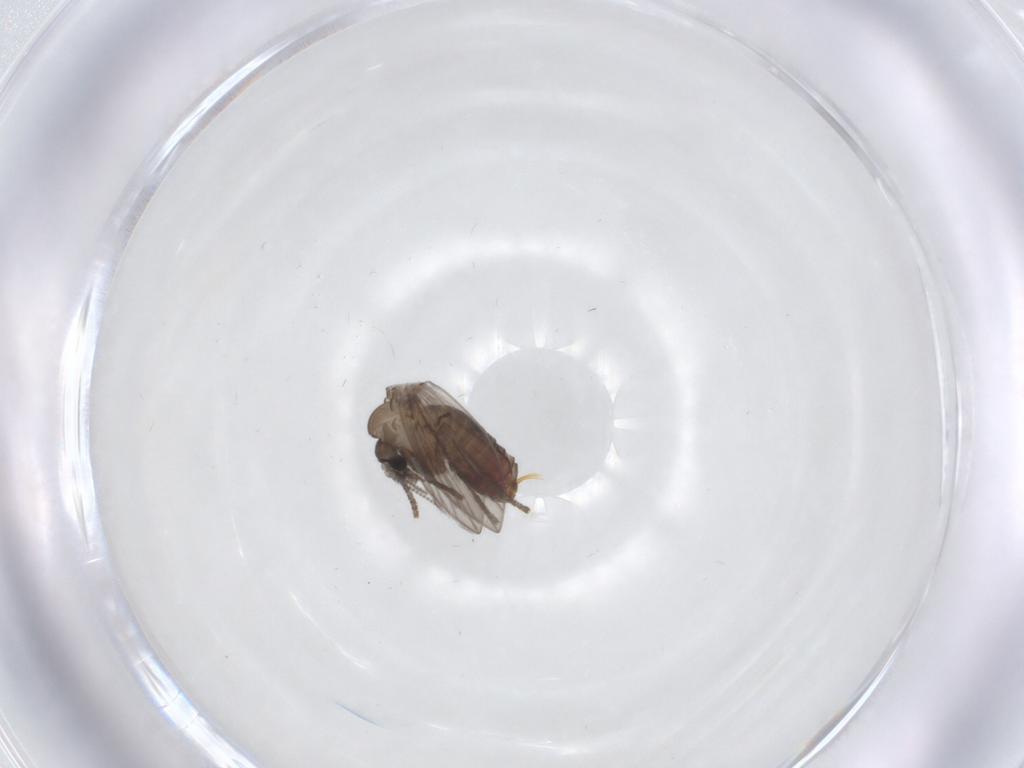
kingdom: Animalia
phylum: Arthropoda
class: Insecta
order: Diptera
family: Psychodidae
